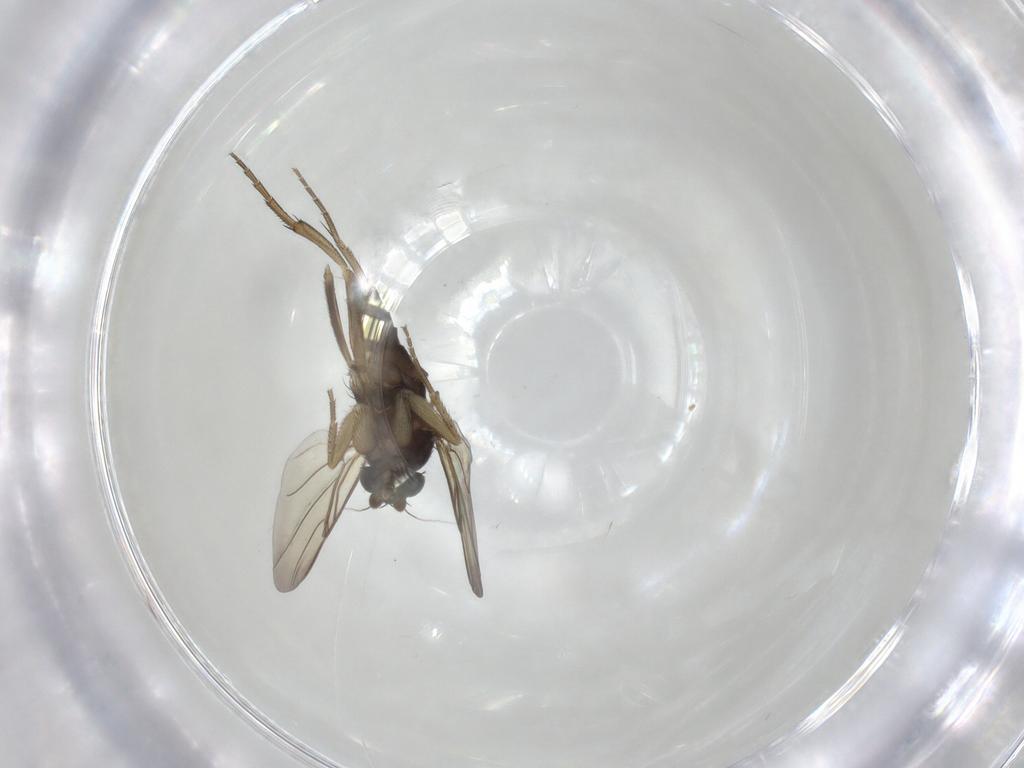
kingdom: Animalia
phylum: Arthropoda
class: Insecta
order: Diptera
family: Phoridae
